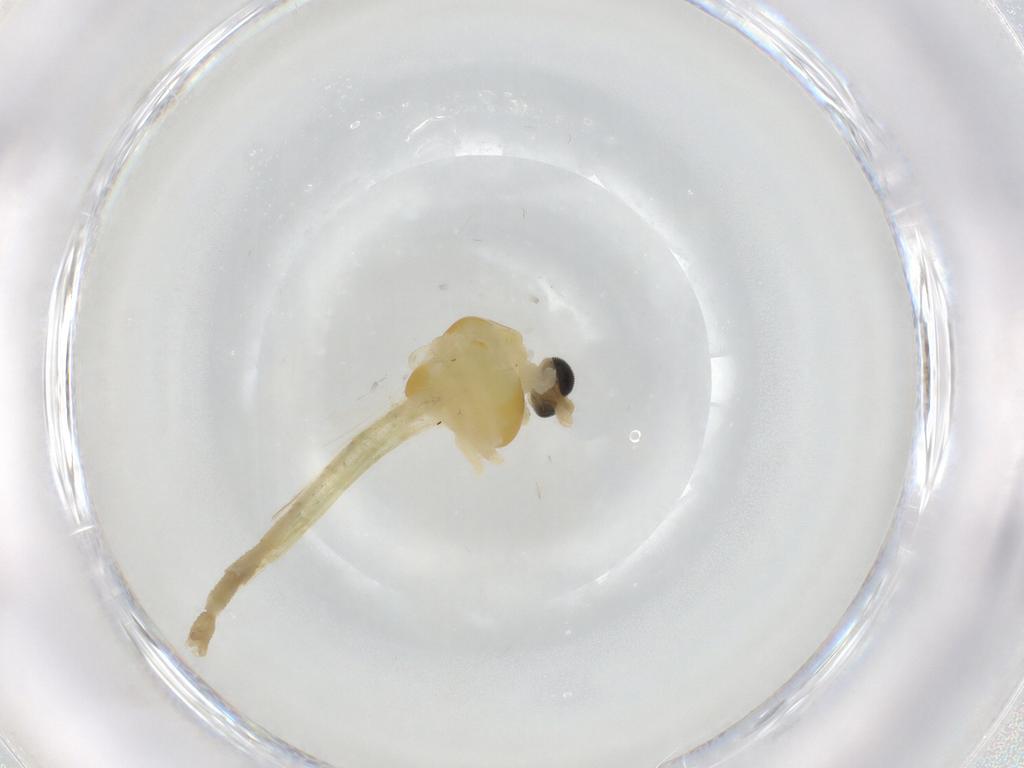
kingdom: Animalia
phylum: Arthropoda
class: Insecta
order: Diptera
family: Chironomidae
